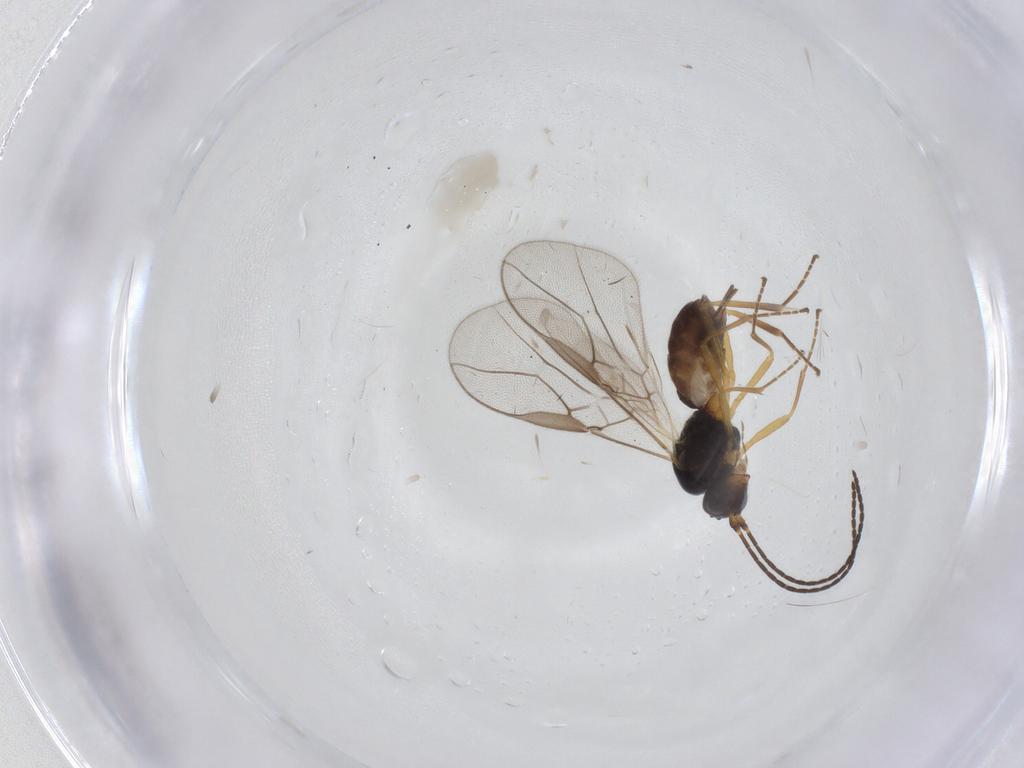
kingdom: Animalia
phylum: Arthropoda
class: Insecta
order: Hymenoptera
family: Braconidae
